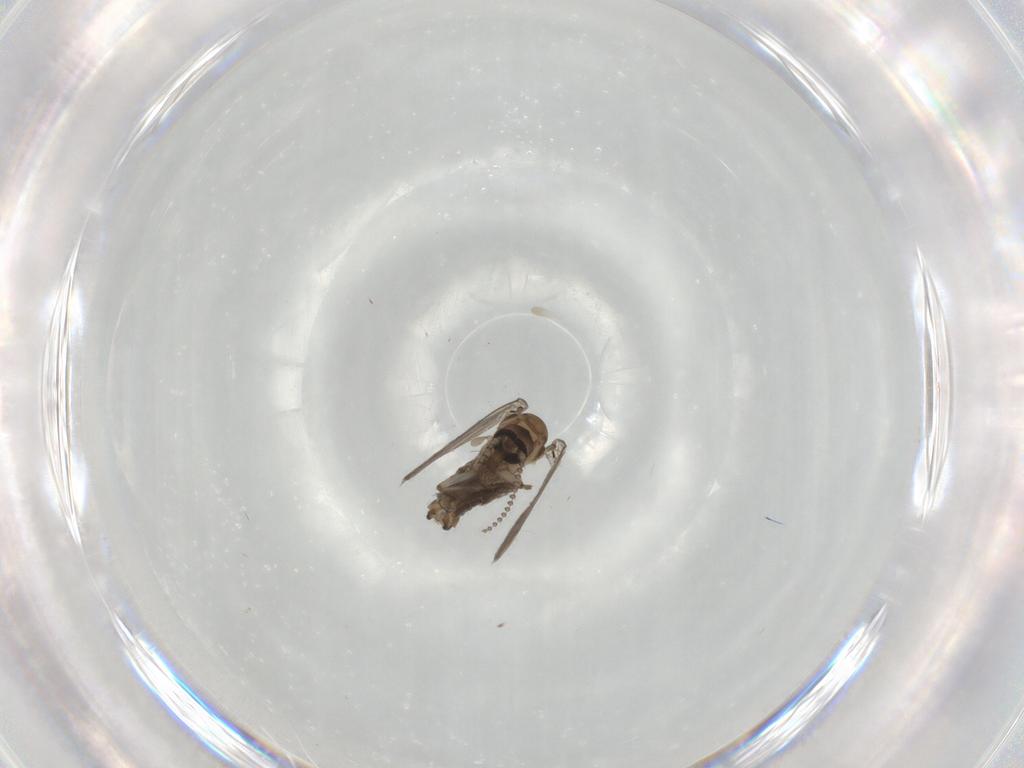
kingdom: Animalia
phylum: Arthropoda
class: Insecta
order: Diptera
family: Psychodidae
